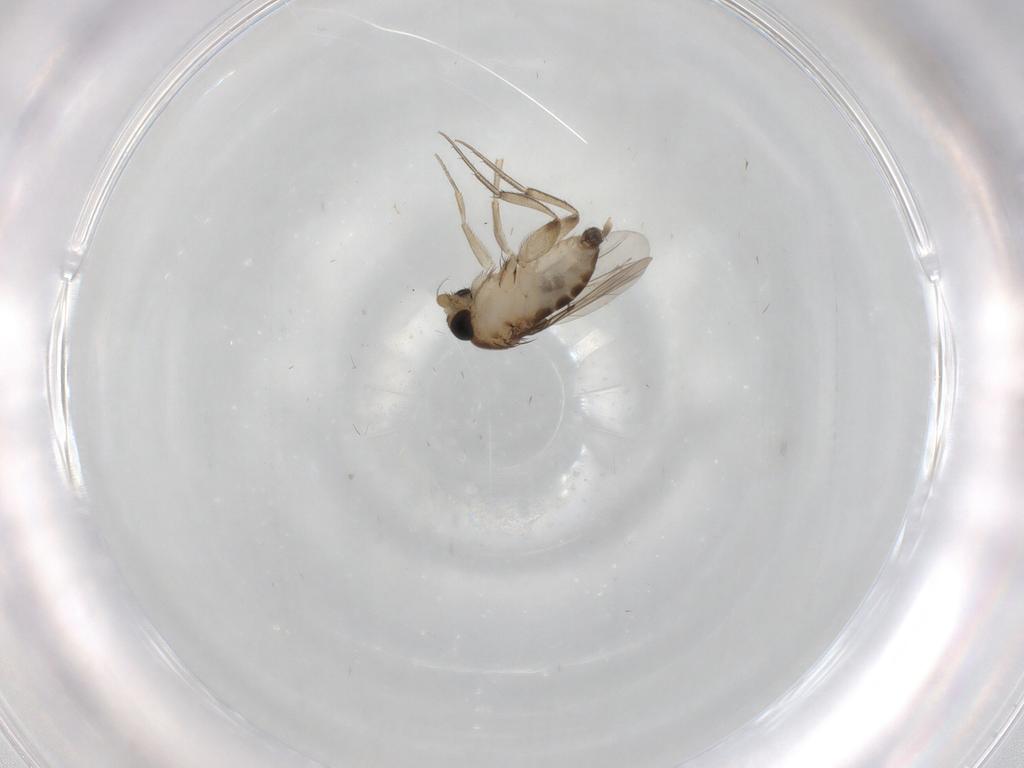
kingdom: Animalia
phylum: Arthropoda
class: Insecta
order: Diptera
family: Phoridae
